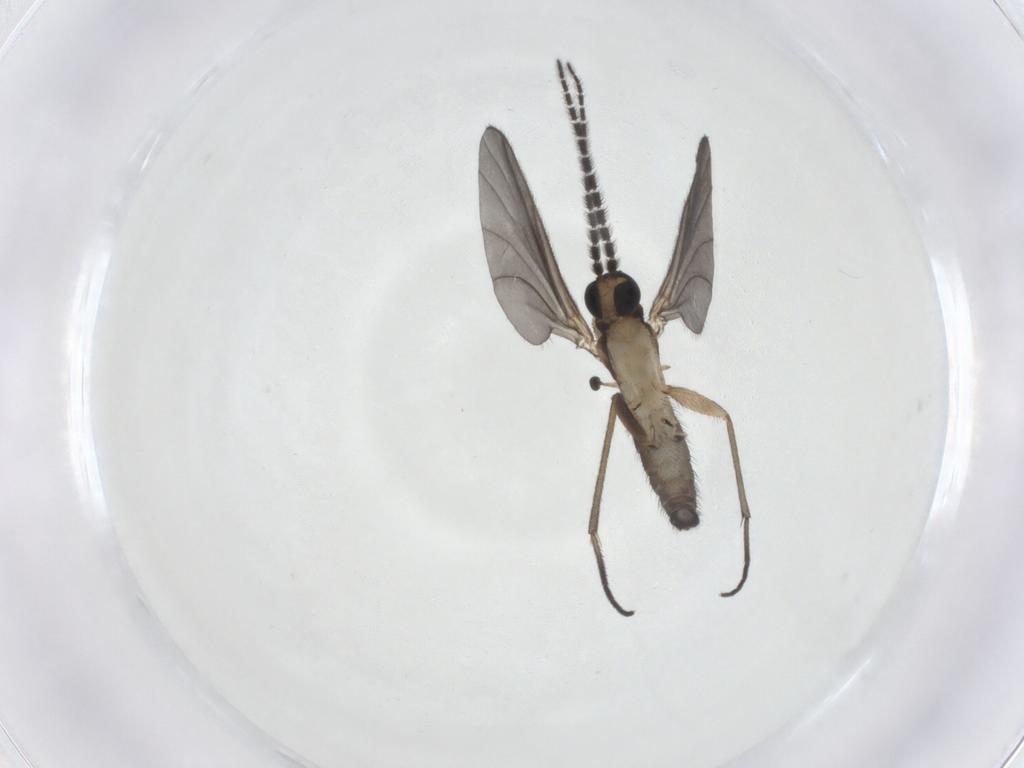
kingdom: Animalia
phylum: Arthropoda
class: Insecta
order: Diptera
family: Sciaridae
